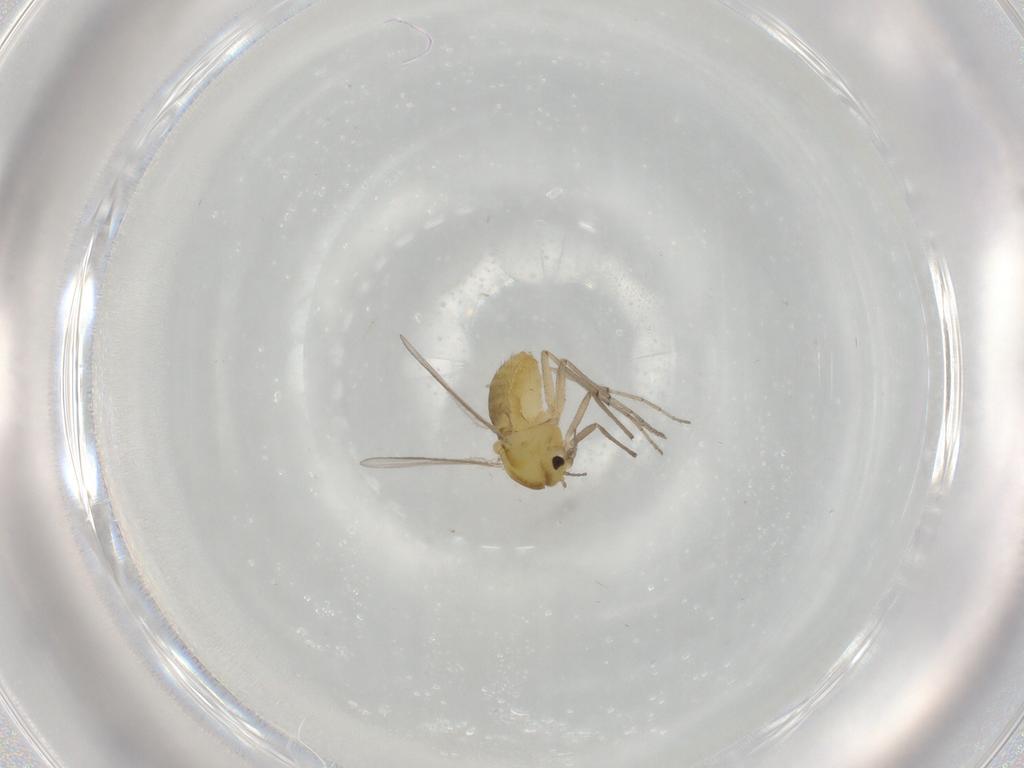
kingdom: Animalia
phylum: Arthropoda
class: Insecta
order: Diptera
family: Chironomidae
